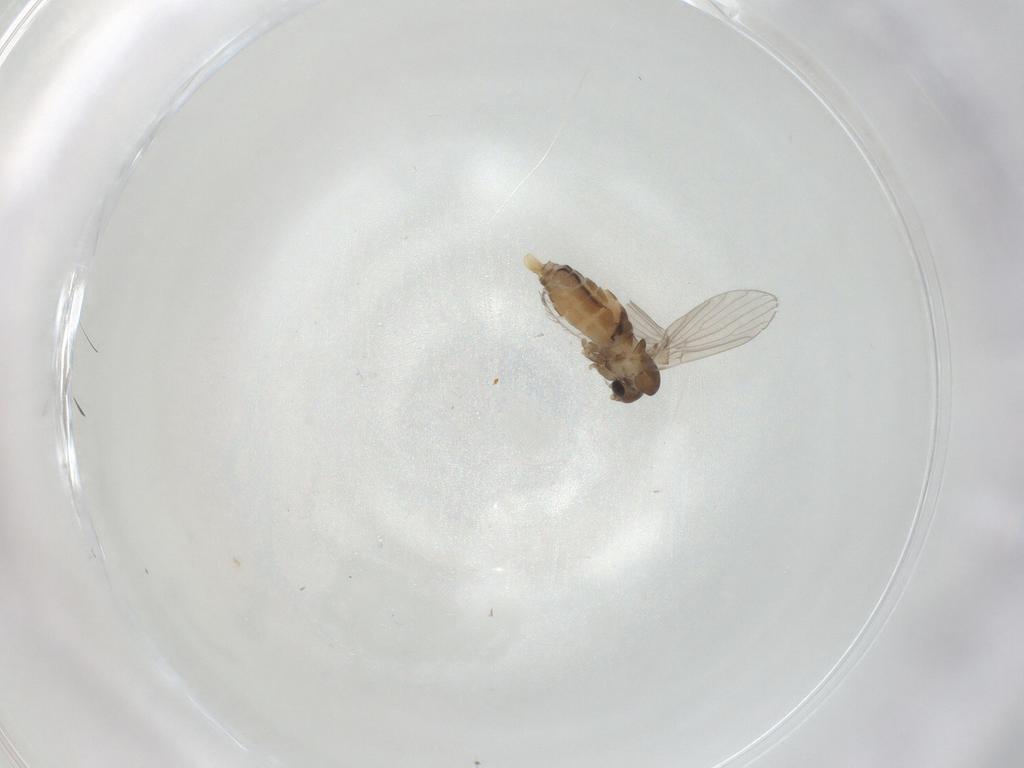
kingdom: Animalia
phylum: Arthropoda
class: Insecta
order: Diptera
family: Psychodidae
